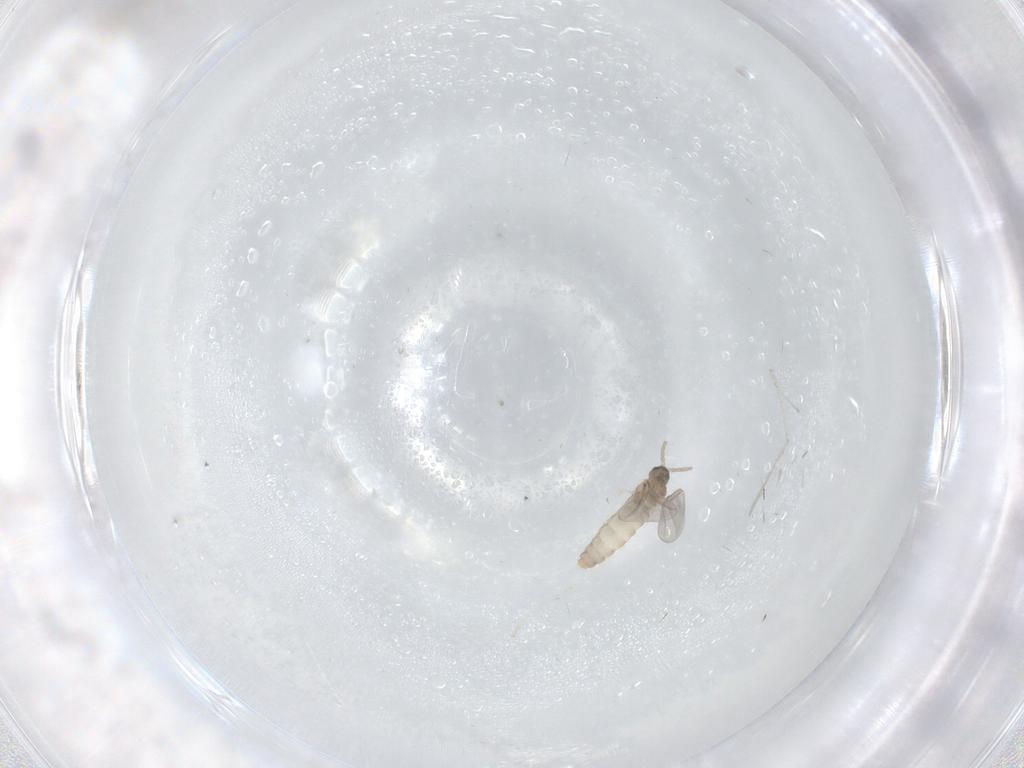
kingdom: Animalia
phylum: Arthropoda
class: Insecta
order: Diptera
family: Cecidomyiidae
